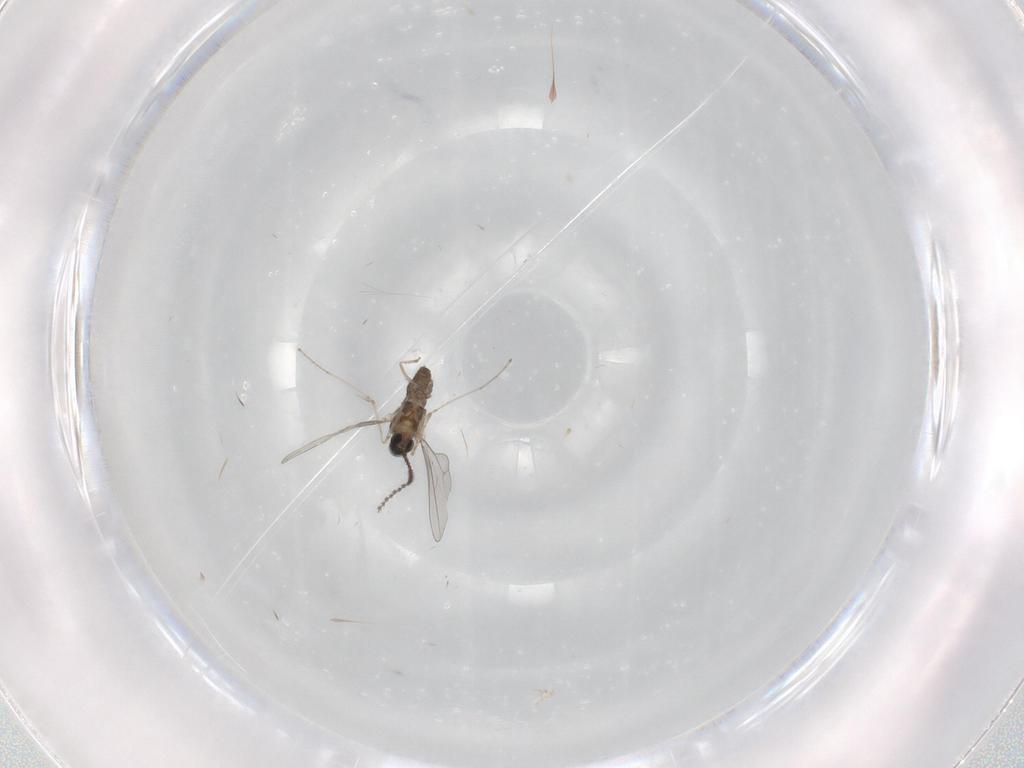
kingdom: Animalia
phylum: Arthropoda
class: Insecta
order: Diptera
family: Cecidomyiidae
